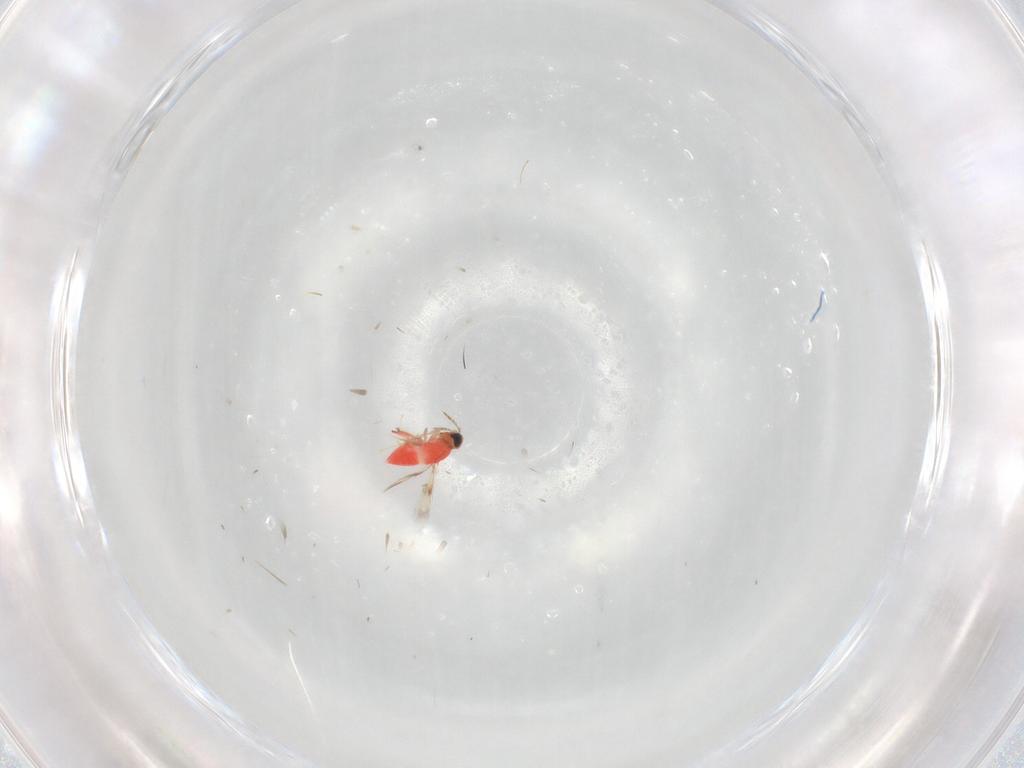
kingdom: Animalia
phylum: Arthropoda
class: Insecta
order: Hymenoptera
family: Trichogrammatidae
